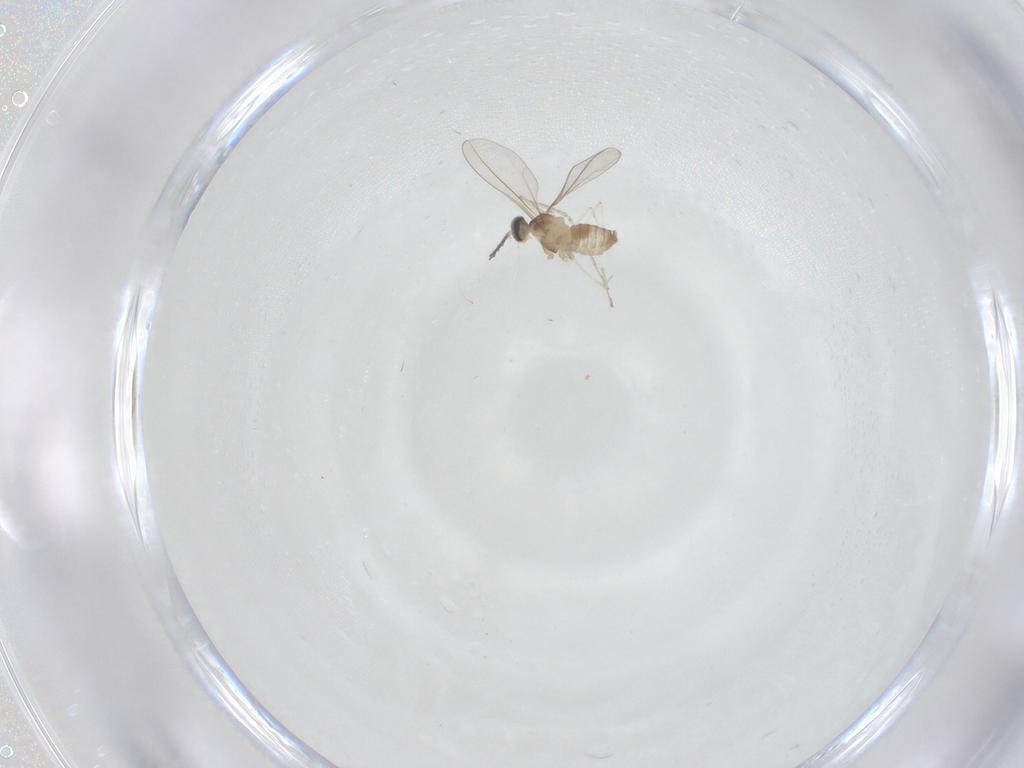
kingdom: Animalia
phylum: Arthropoda
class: Insecta
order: Diptera
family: Cecidomyiidae
